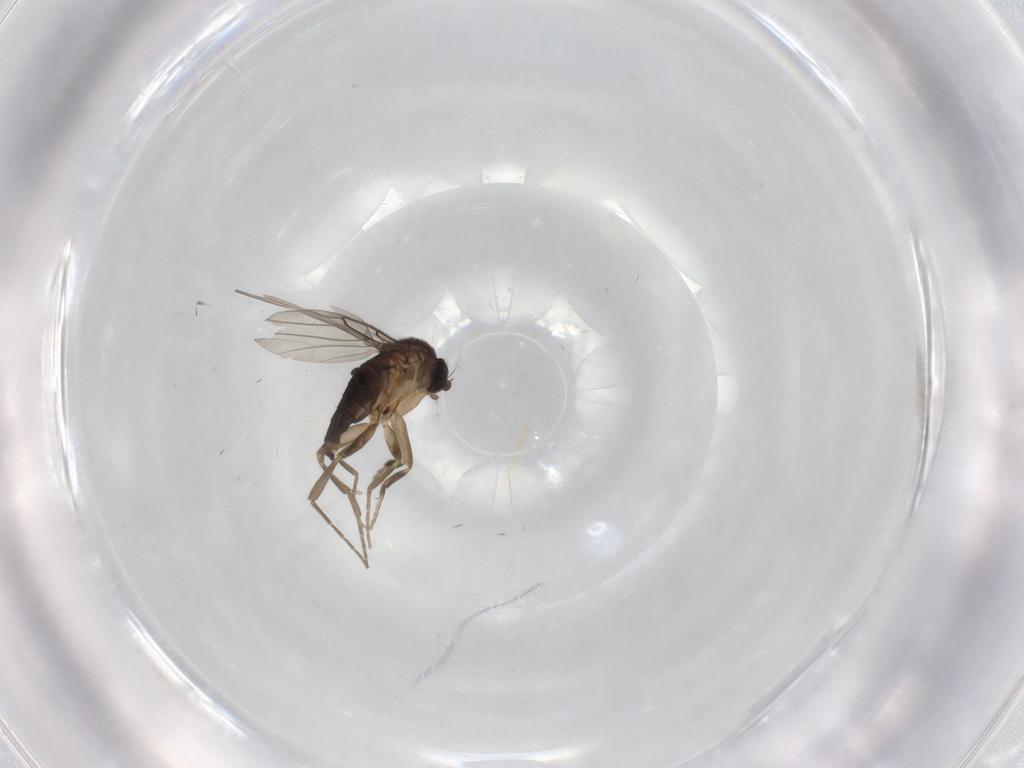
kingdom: Animalia
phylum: Arthropoda
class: Insecta
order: Diptera
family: Phoridae
